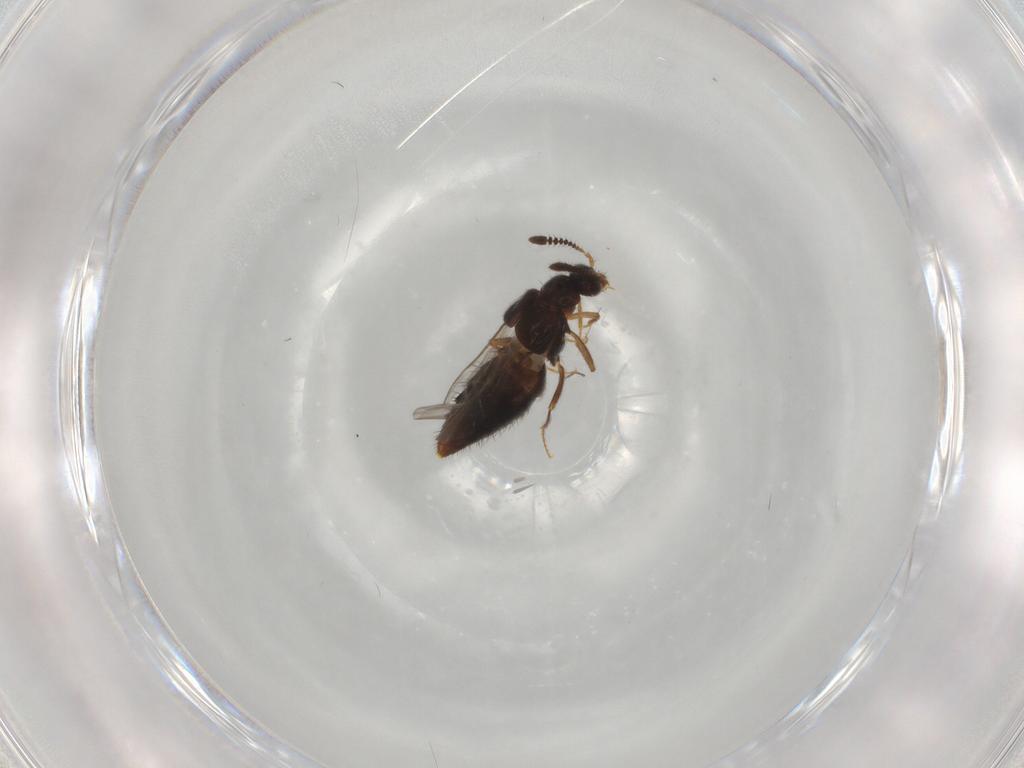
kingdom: Animalia
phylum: Arthropoda
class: Insecta
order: Coleoptera
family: Staphylinidae
